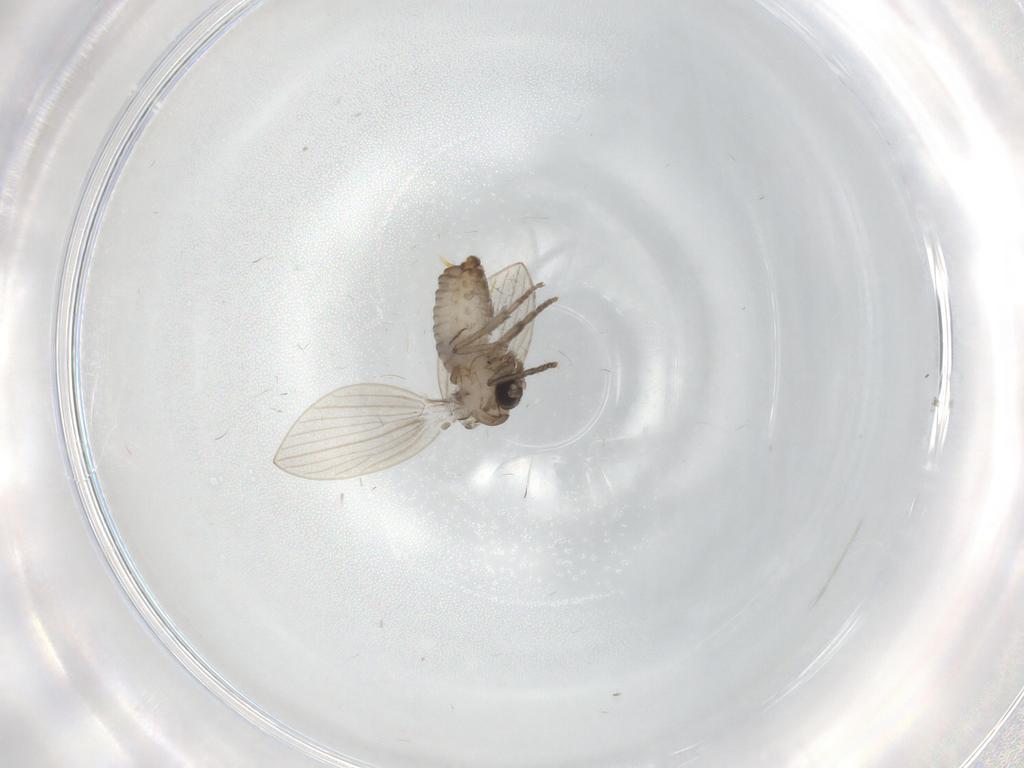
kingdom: Animalia
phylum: Arthropoda
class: Insecta
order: Diptera
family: Psychodidae
